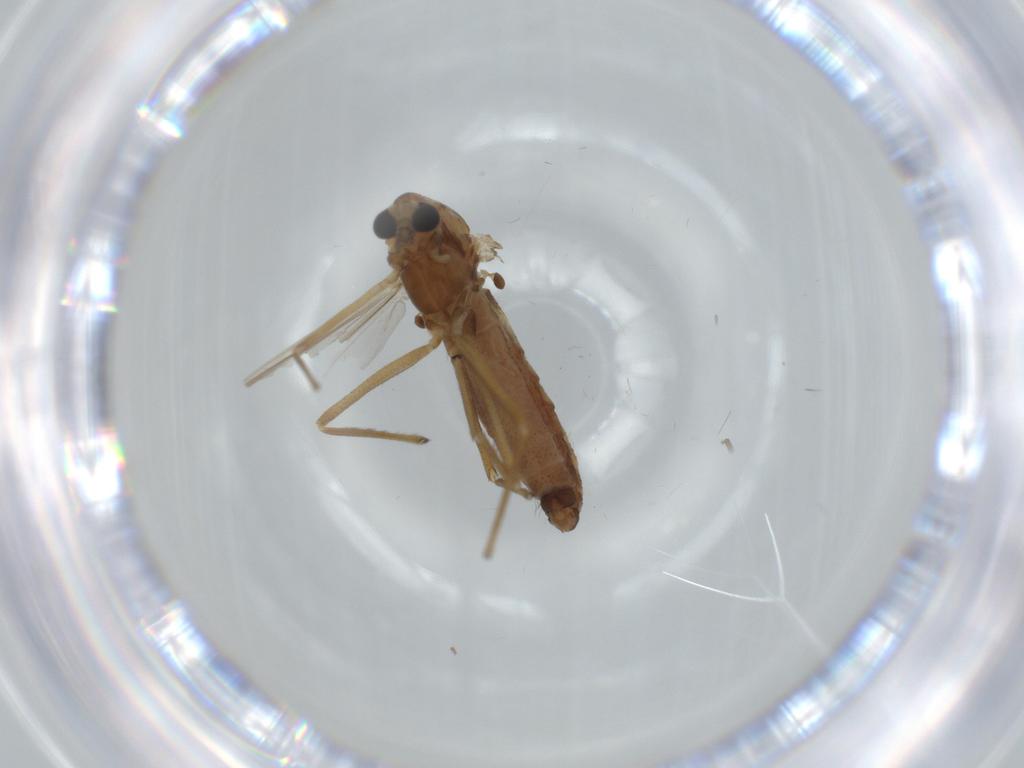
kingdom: Animalia
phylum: Arthropoda
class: Insecta
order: Diptera
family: Chironomidae
